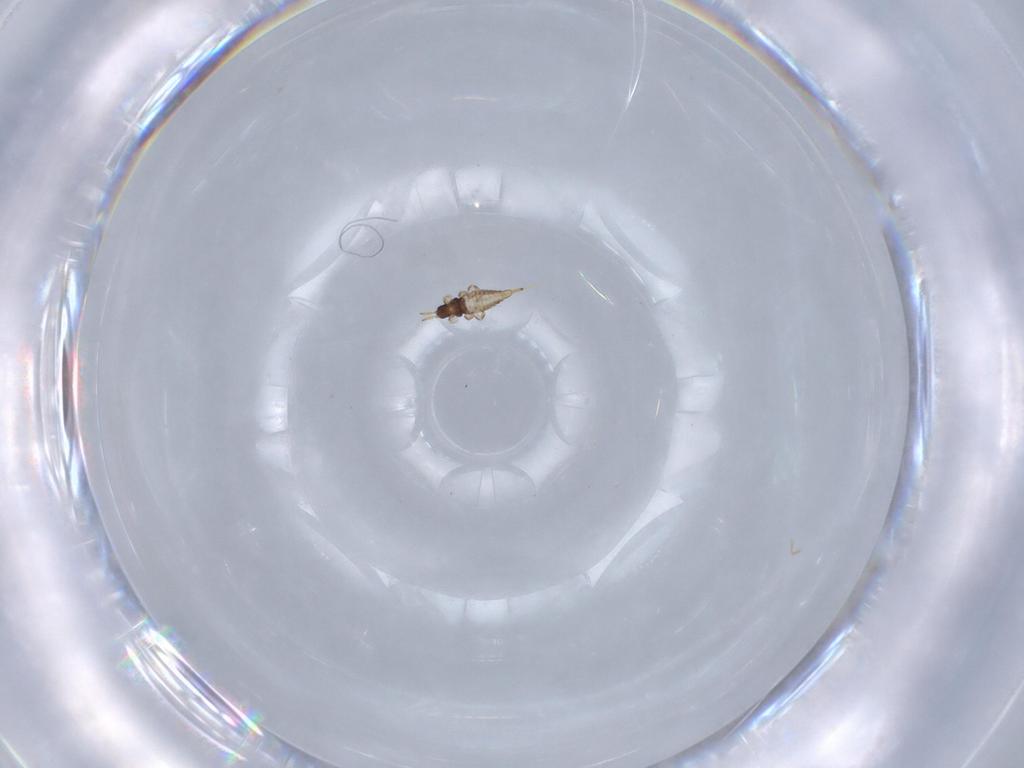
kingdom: Animalia
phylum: Arthropoda
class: Insecta
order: Thysanoptera
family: Phlaeothripidae
